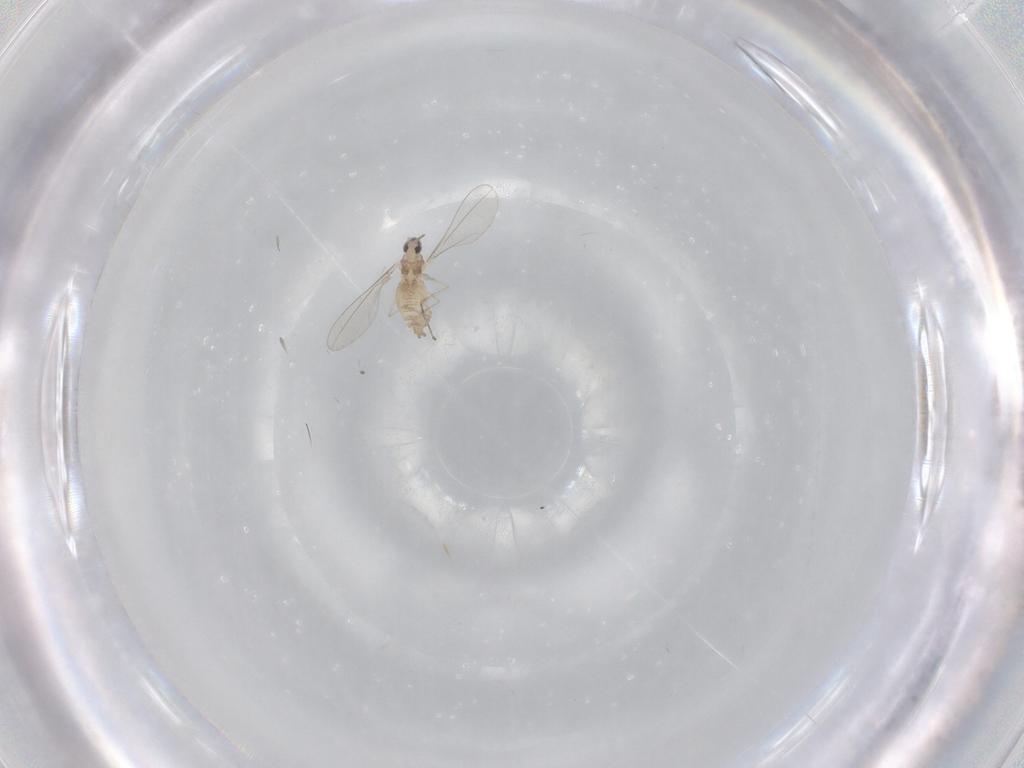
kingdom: Animalia
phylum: Arthropoda
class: Insecta
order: Diptera
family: Cecidomyiidae
